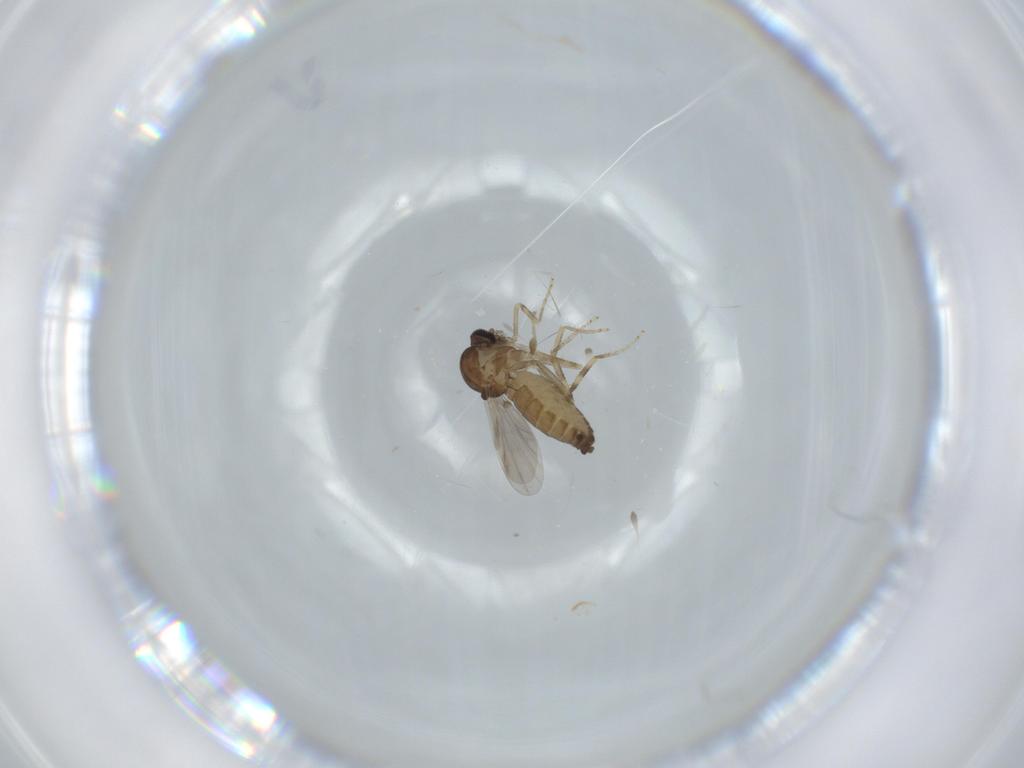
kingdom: Animalia
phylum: Arthropoda
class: Insecta
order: Diptera
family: Ceratopogonidae
